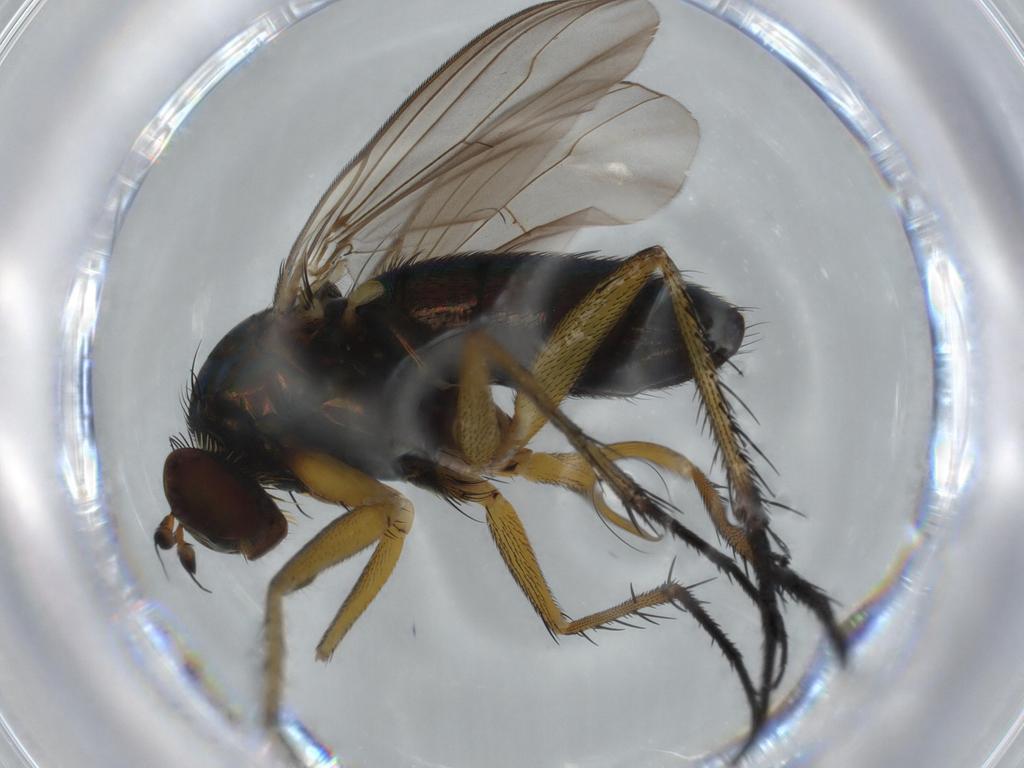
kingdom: Animalia
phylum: Arthropoda
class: Insecta
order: Diptera
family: Dolichopodidae
